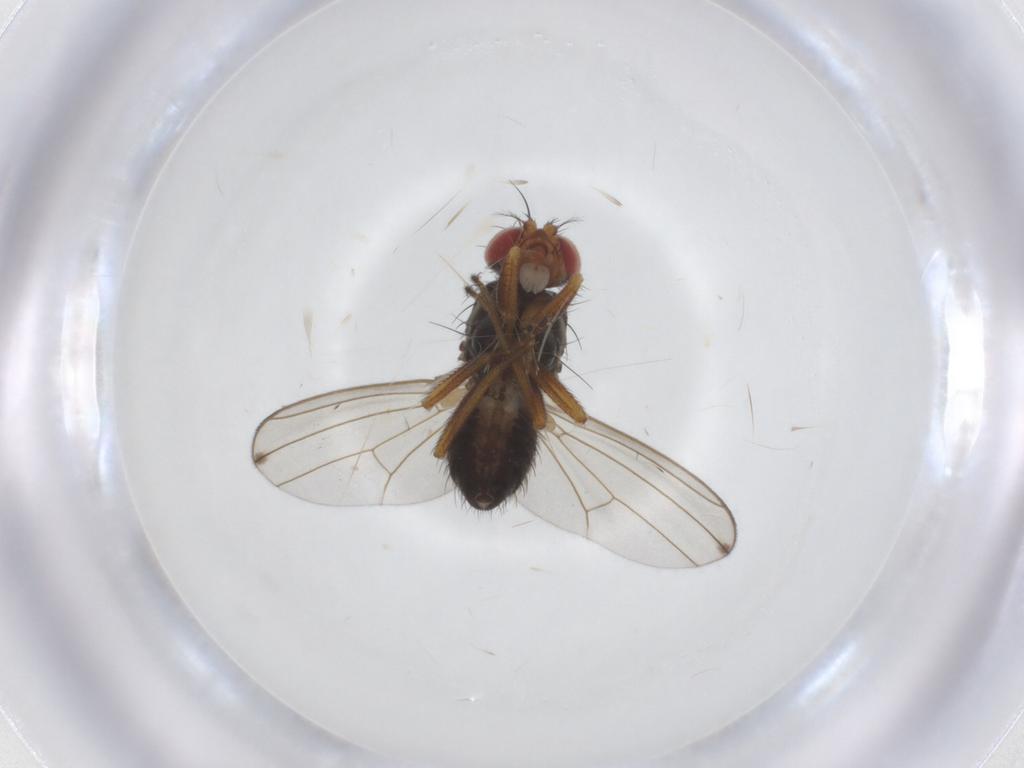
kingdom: Animalia
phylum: Arthropoda
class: Insecta
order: Diptera
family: Drosophilidae
